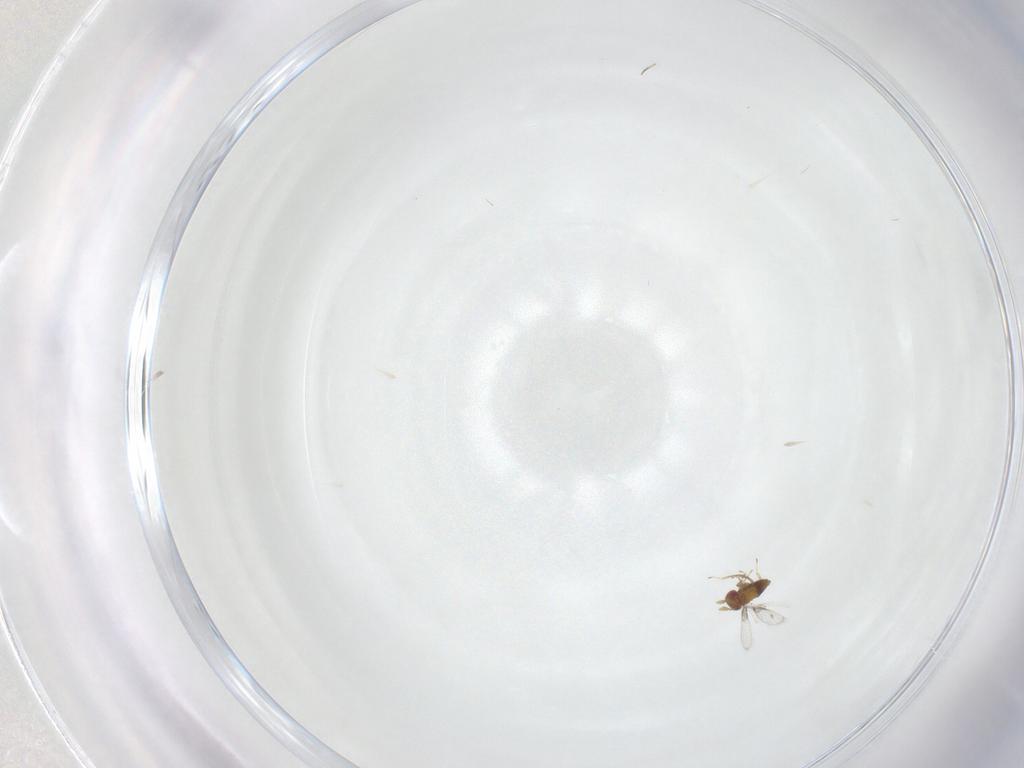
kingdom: Animalia
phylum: Arthropoda
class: Insecta
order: Hymenoptera
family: Trichogrammatidae
